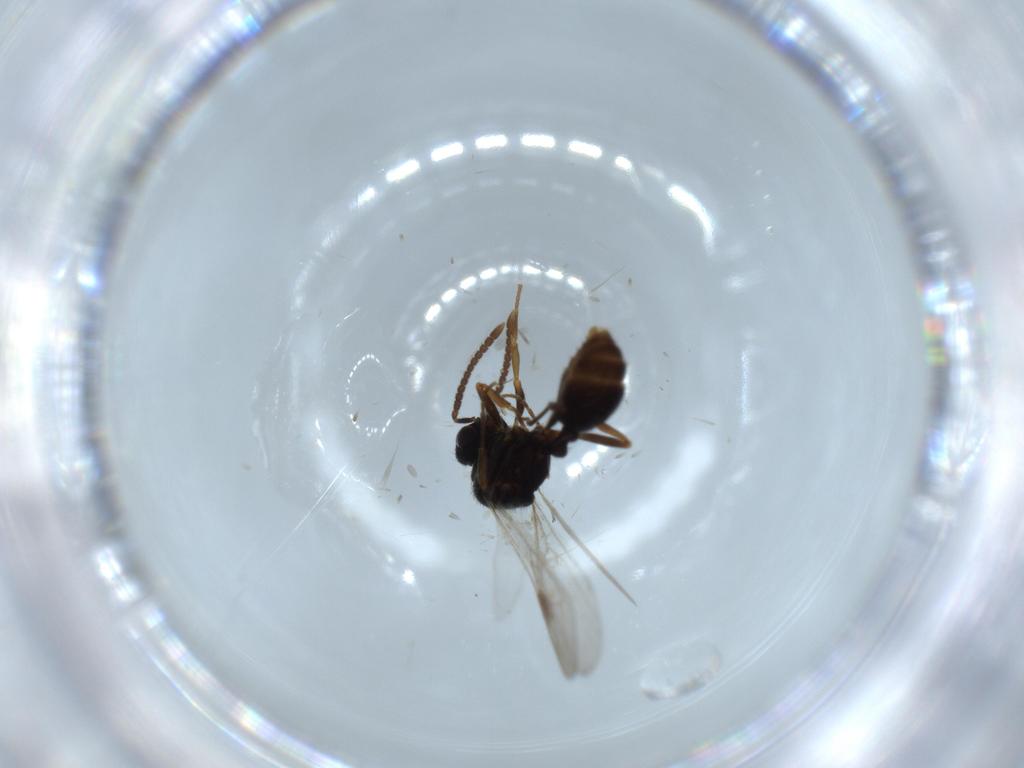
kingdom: Animalia
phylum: Arthropoda
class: Insecta
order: Hymenoptera
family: Formicidae
